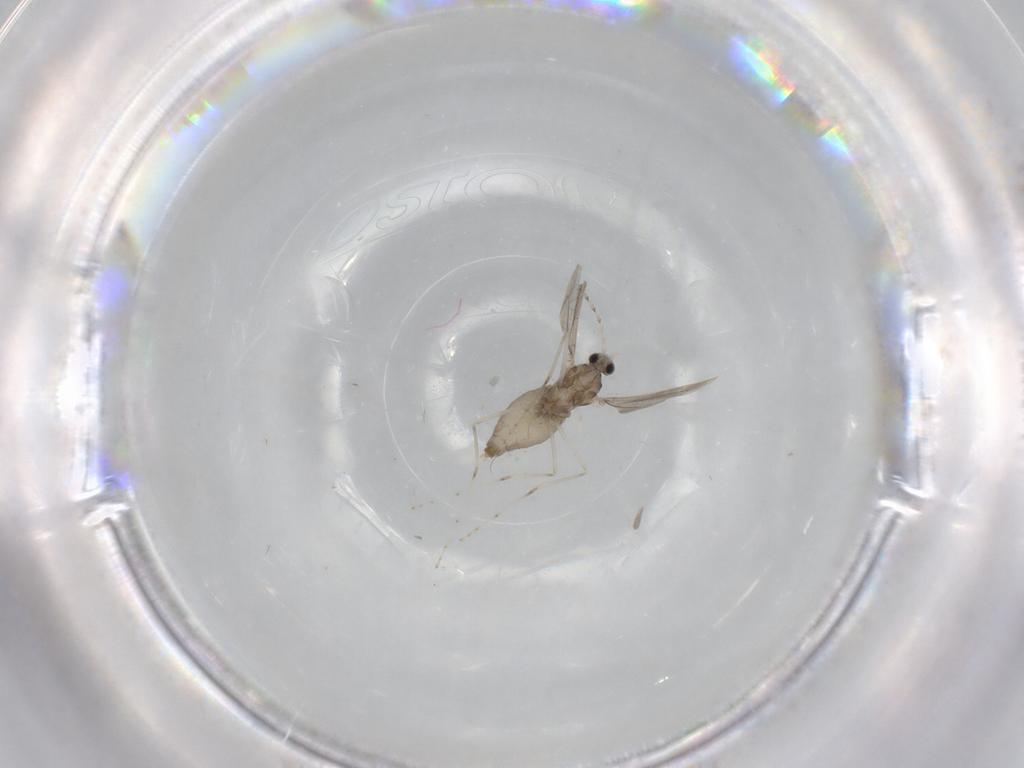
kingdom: Animalia
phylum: Arthropoda
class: Insecta
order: Diptera
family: Cecidomyiidae
